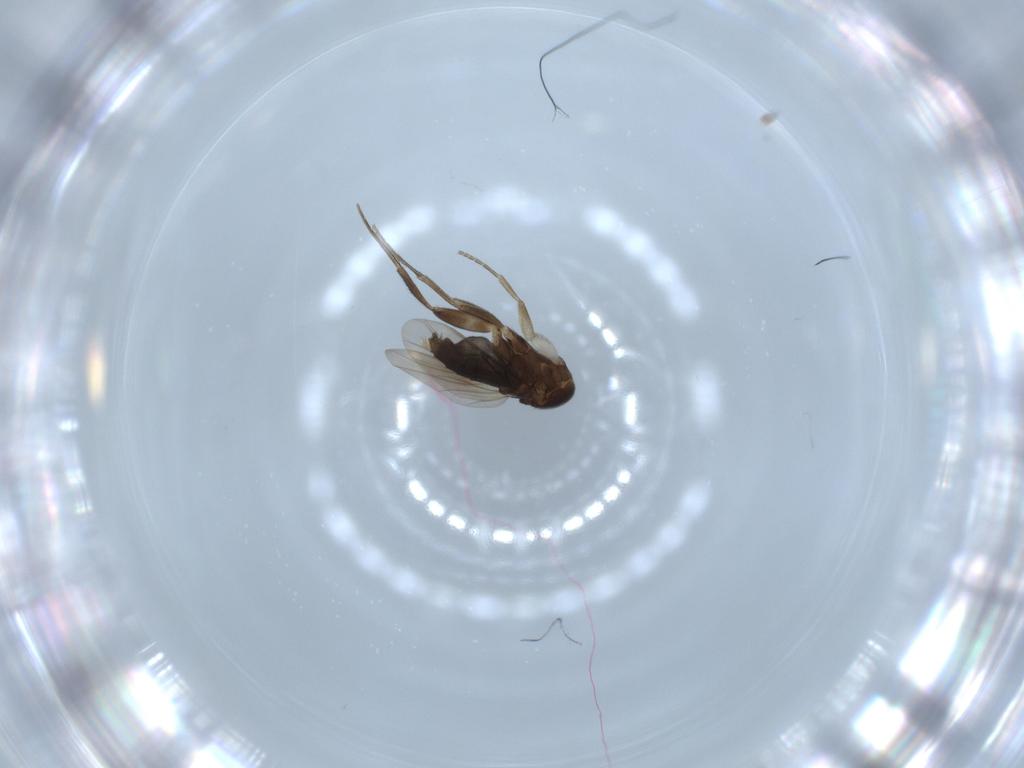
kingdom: Animalia
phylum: Arthropoda
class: Insecta
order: Diptera
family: Phoridae
